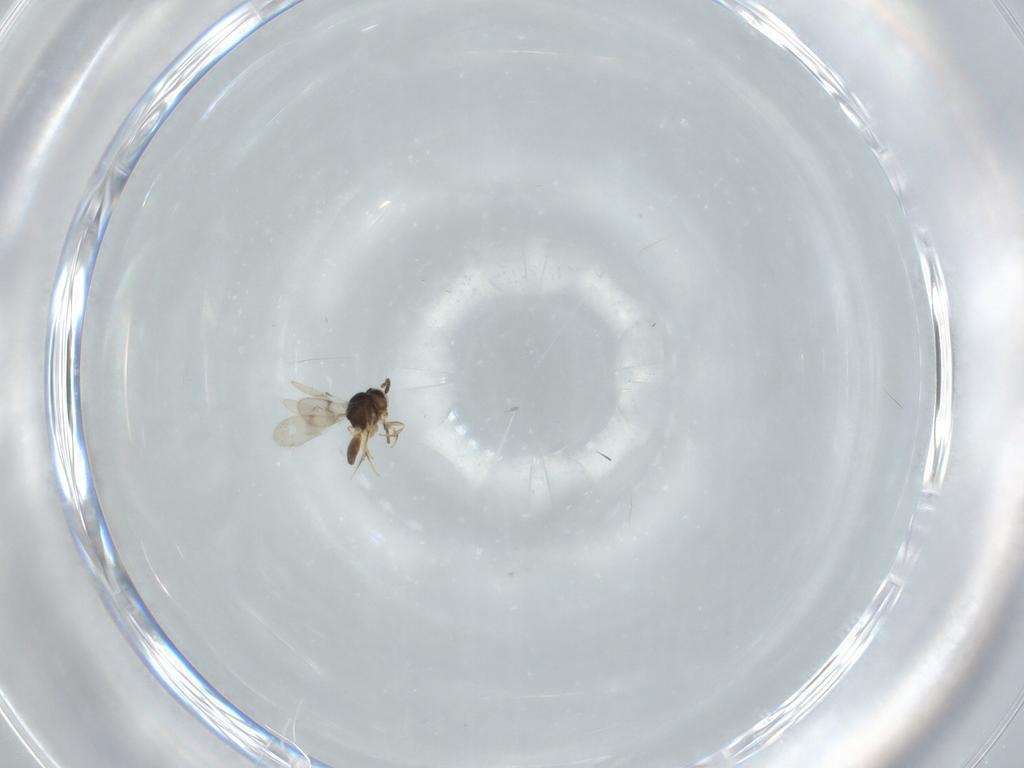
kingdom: Animalia
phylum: Arthropoda
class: Insecta
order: Hymenoptera
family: Scelionidae
